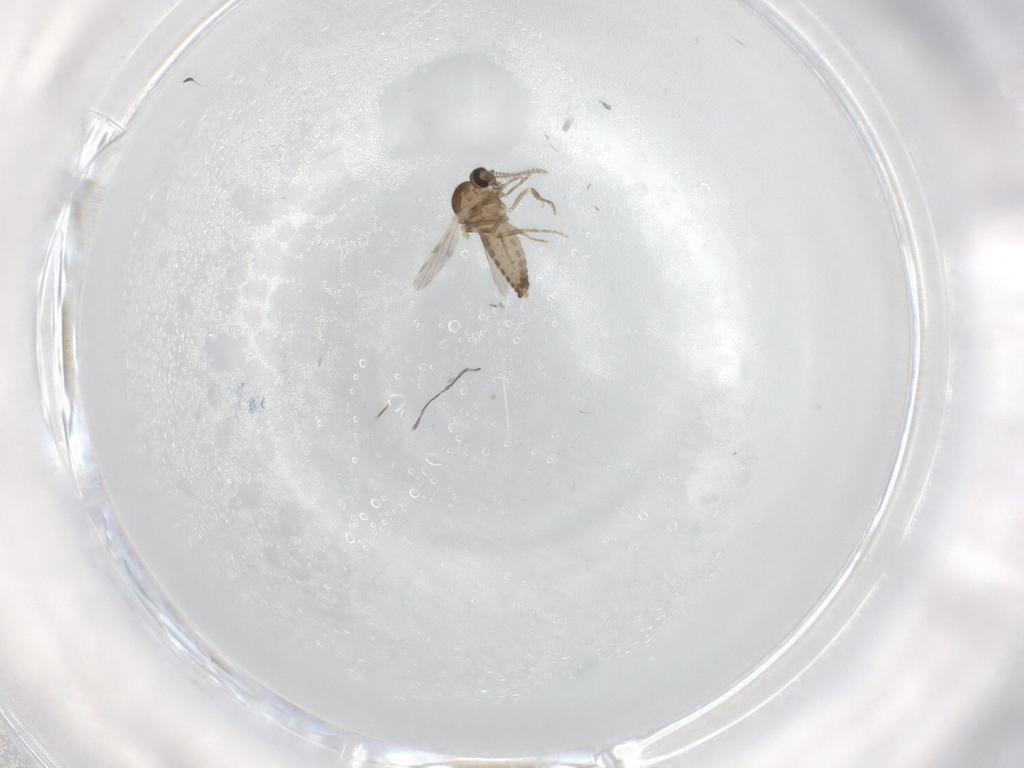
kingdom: Animalia
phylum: Arthropoda
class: Insecta
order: Diptera
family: Ceratopogonidae
